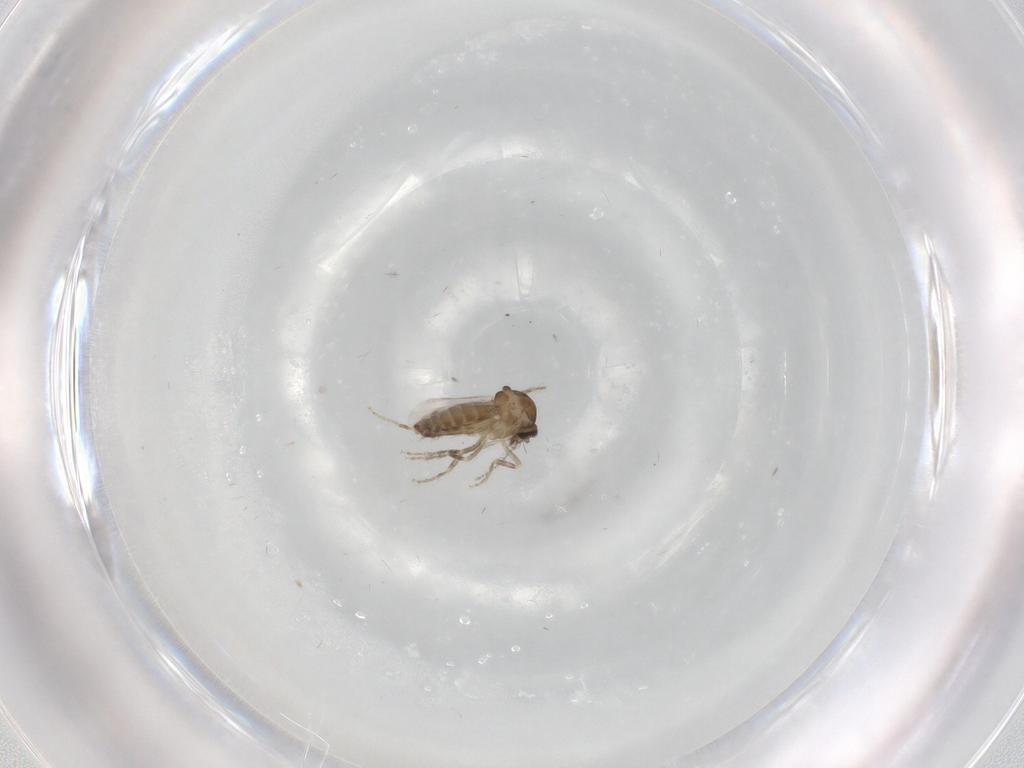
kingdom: Animalia
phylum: Arthropoda
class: Insecta
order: Diptera
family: Ceratopogonidae
